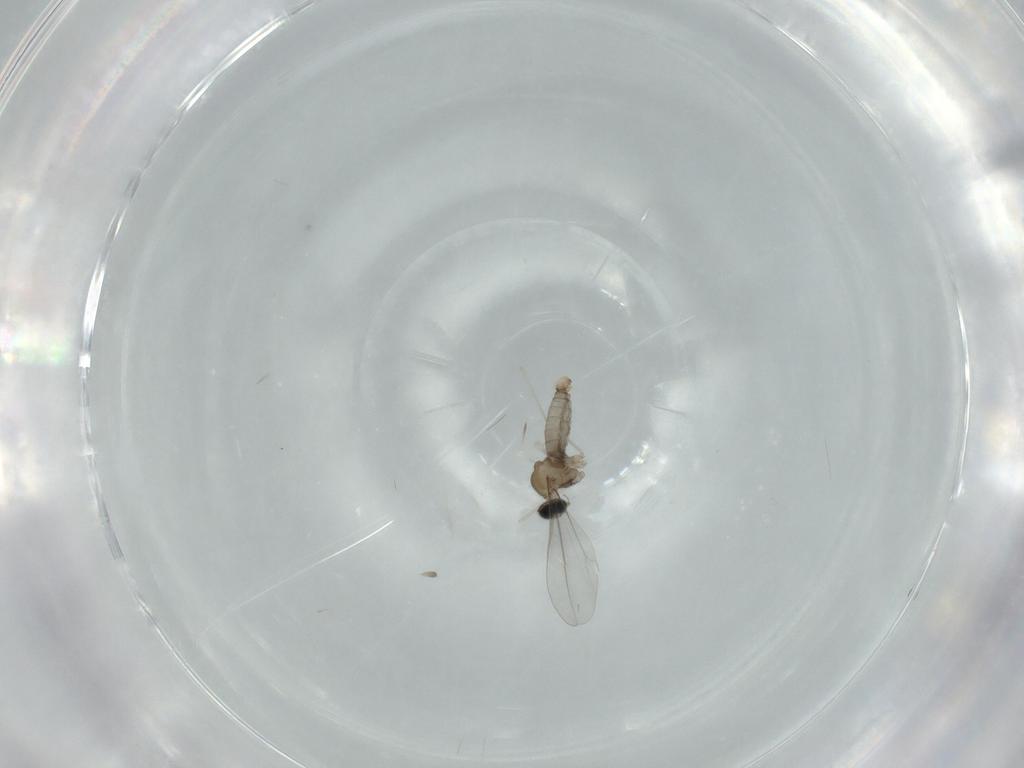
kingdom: Animalia
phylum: Arthropoda
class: Insecta
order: Diptera
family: Cecidomyiidae
